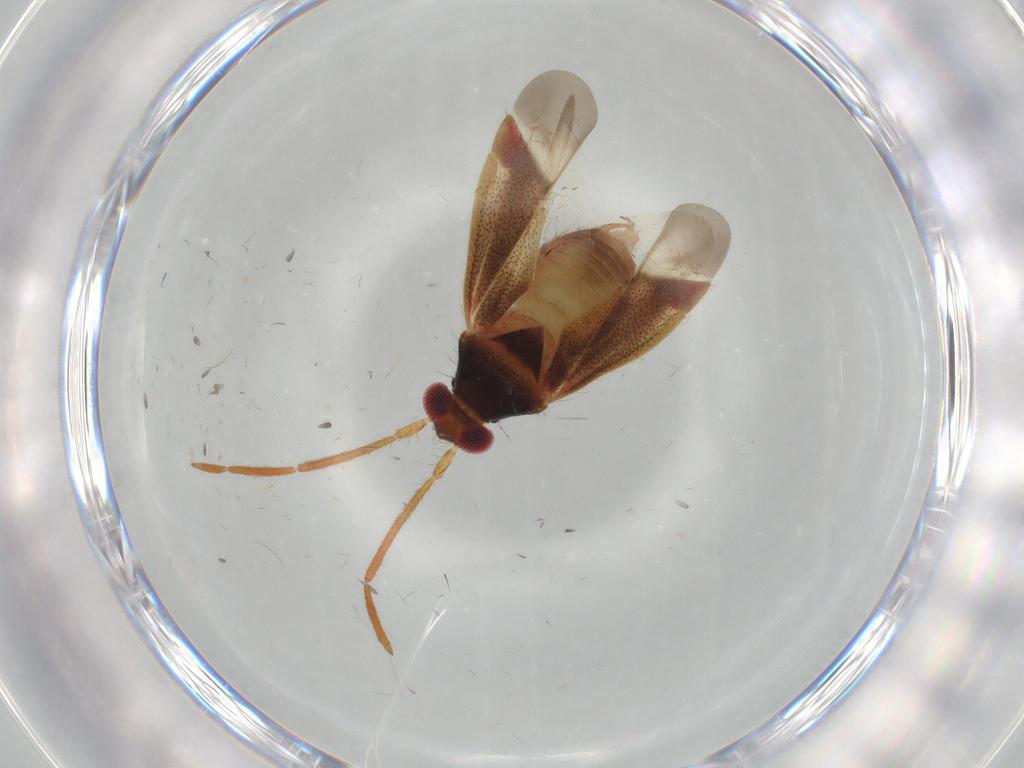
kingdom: Animalia
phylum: Arthropoda
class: Insecta
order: Hemiptera
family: Miridae
